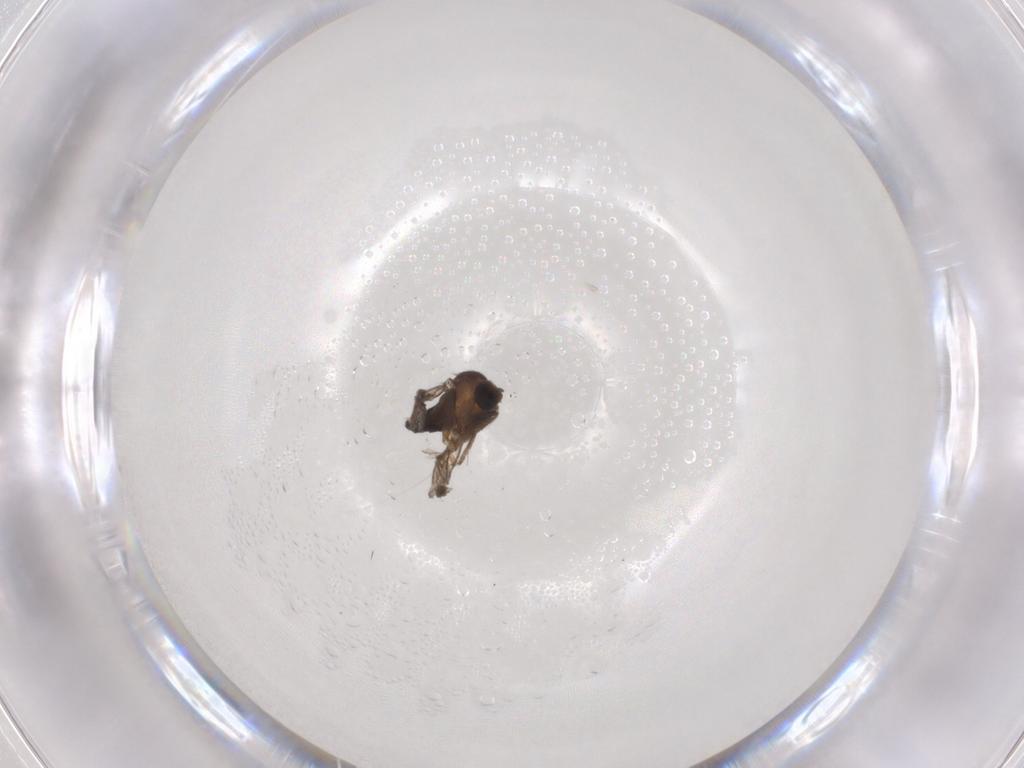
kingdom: Animalia
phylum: Arthropoda
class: Insecta
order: Diptera
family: Phoridae
